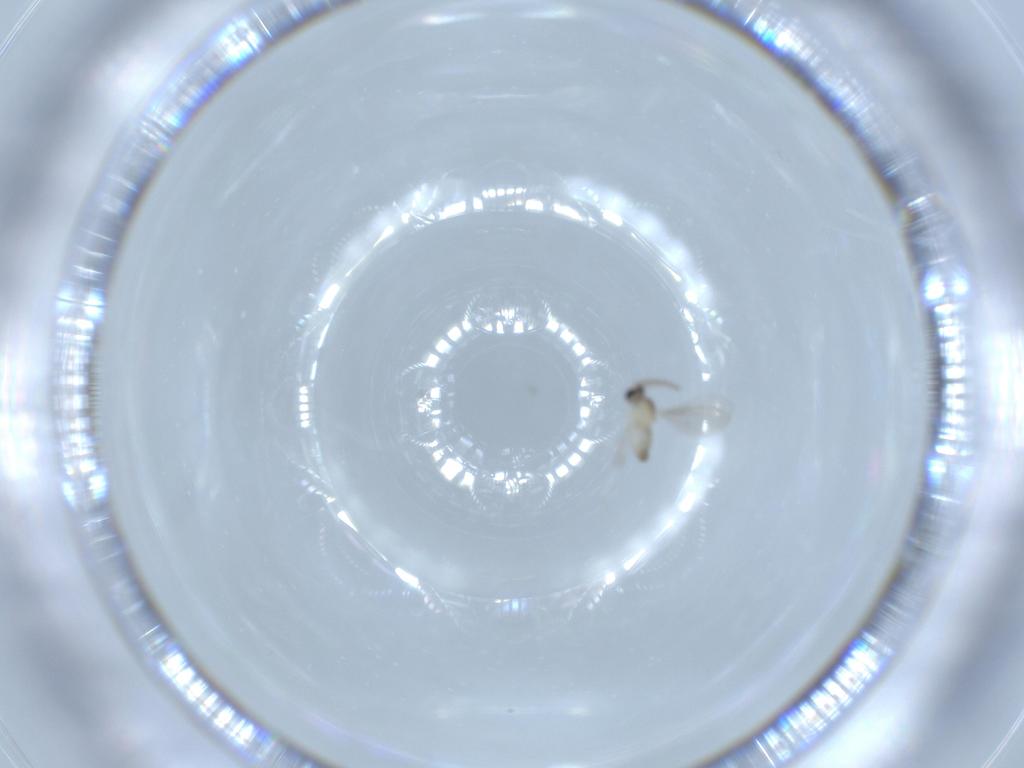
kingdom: Animalia
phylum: Arthropoda
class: Insecta
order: Diptera
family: Cecidomyiidae
